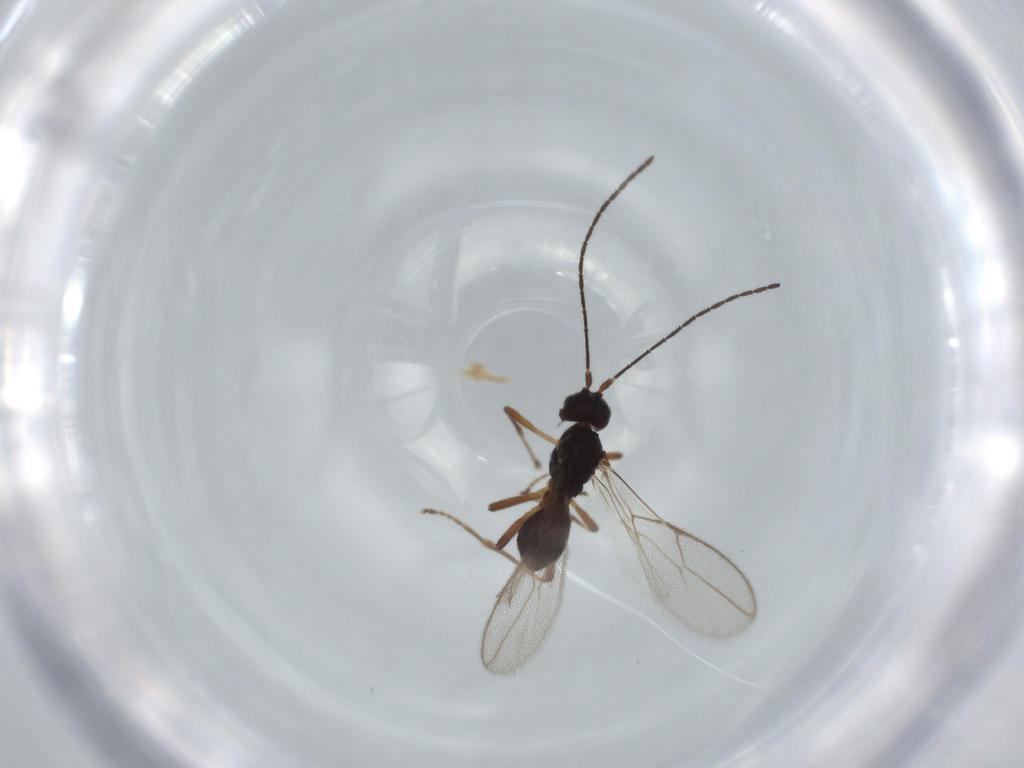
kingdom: Animalia
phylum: Arthropoda
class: Insecta
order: Hymenoptera
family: Braconidae
